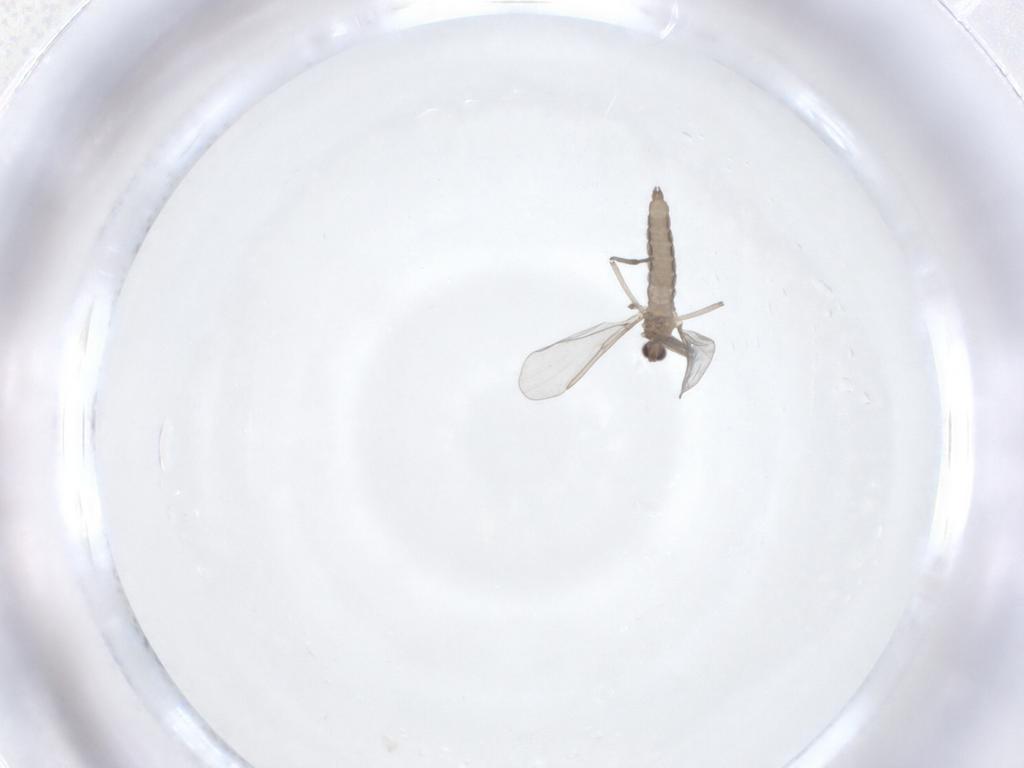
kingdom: Animalia
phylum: Arthropoda
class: Insecta
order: Diptera
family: Cecidomyiidae
